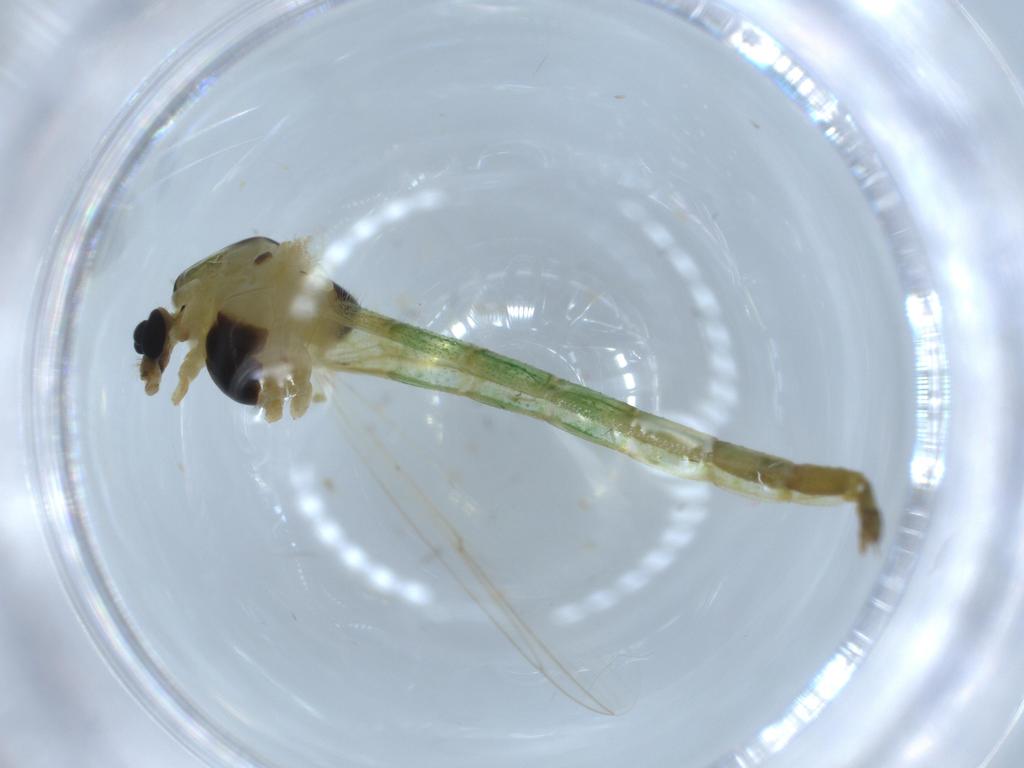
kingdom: Animalia
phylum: Arthropoda
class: Insecta
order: Diptera
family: Chironomidae
